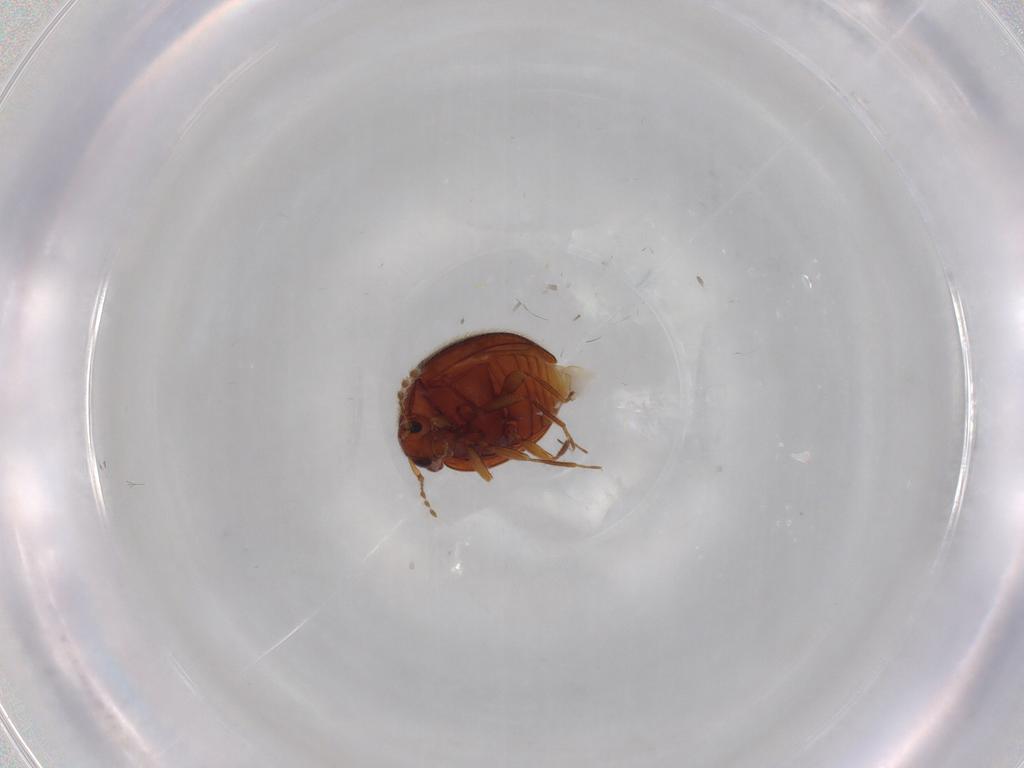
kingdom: Animalia
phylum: Arthropoda
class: Insecta
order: Coleoptera
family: Anamorphidae
